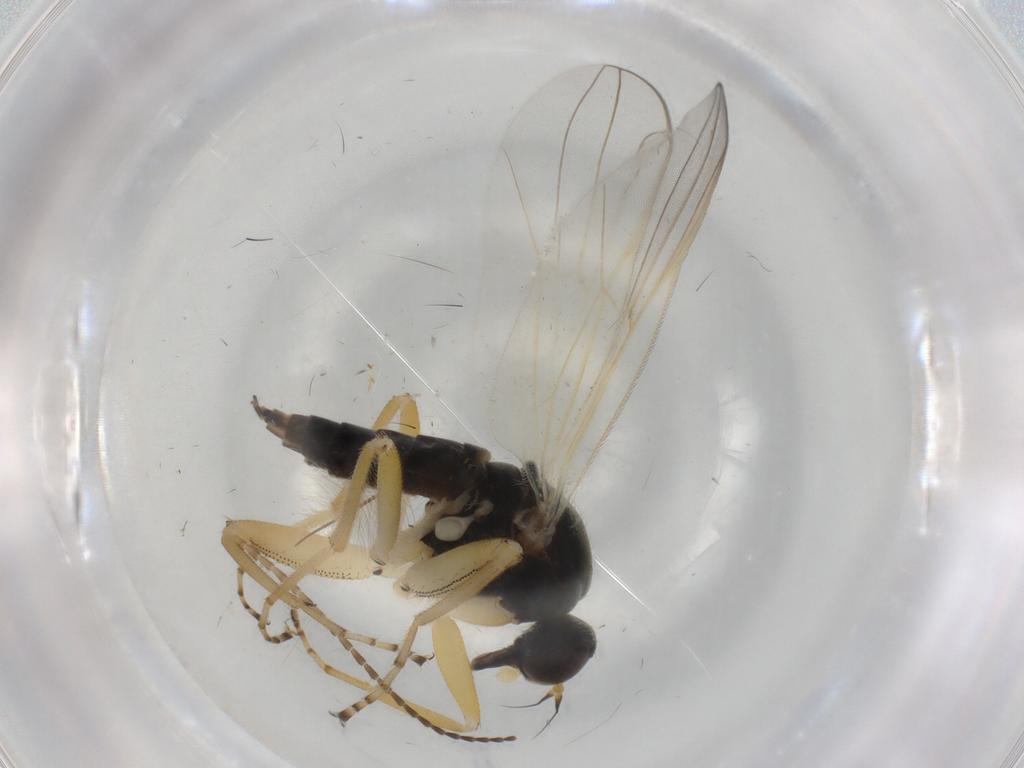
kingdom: Animalia
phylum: Arthropoda
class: Insecta
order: Diptera
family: Hybotidae
